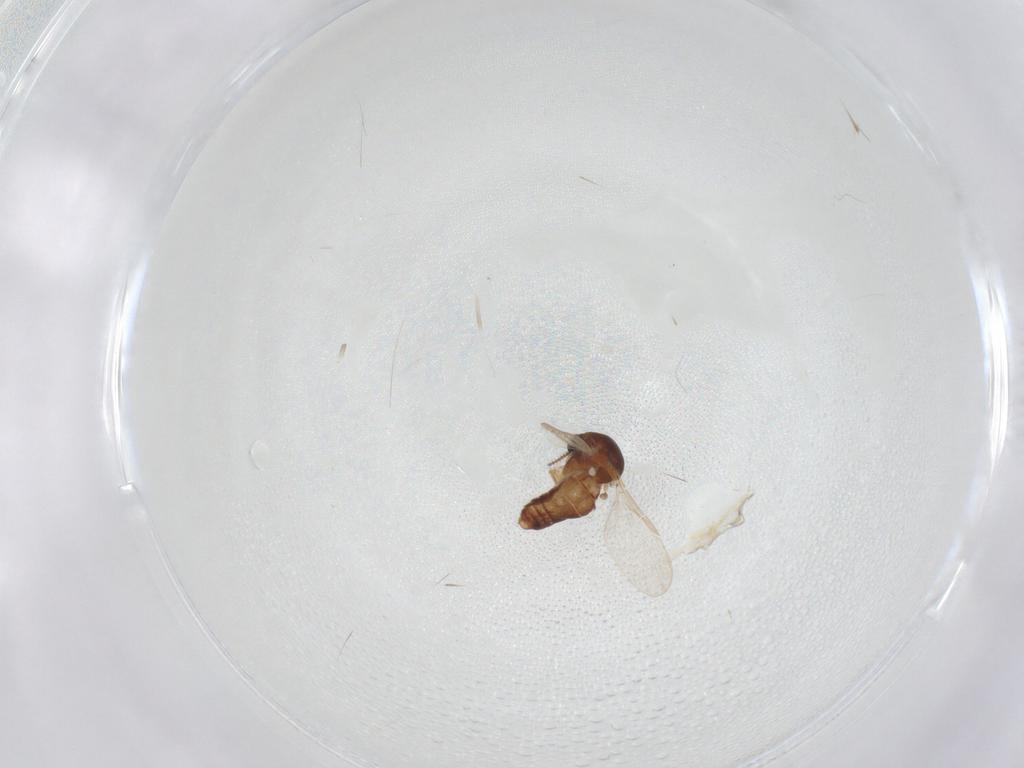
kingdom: Animalia
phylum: Arthropoda
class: Insecta
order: Diptera
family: Ceratopogonidae
